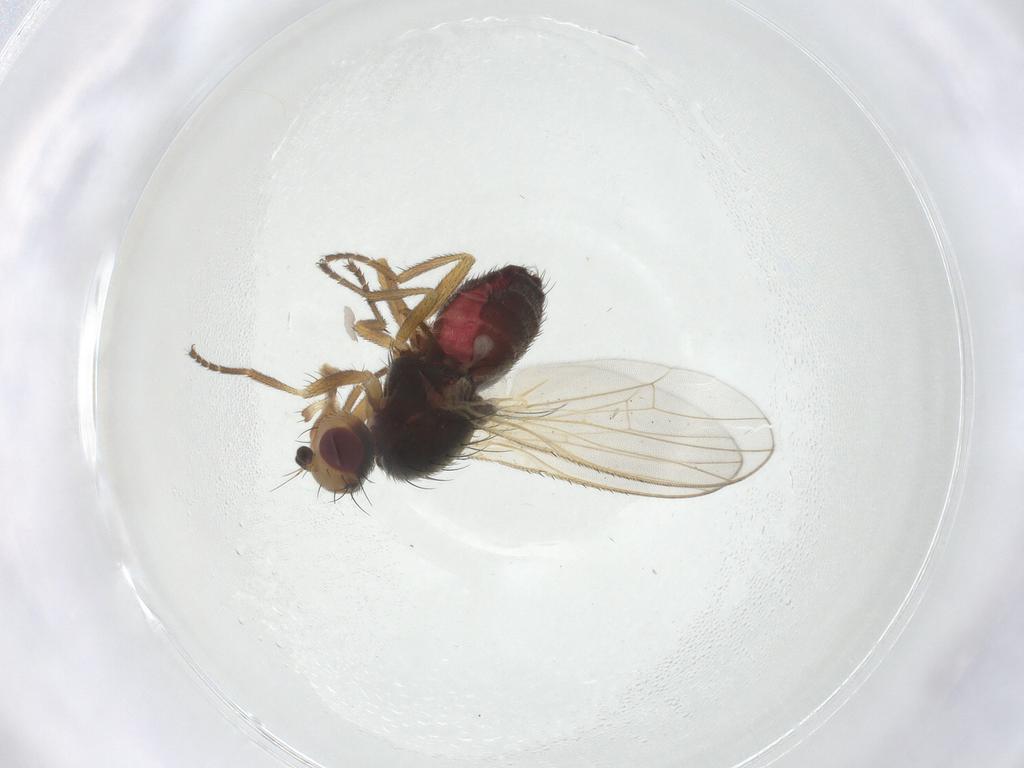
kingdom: Animalia
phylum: Arthropoda
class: Insecta
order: Diptera
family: Heleomyzidae
